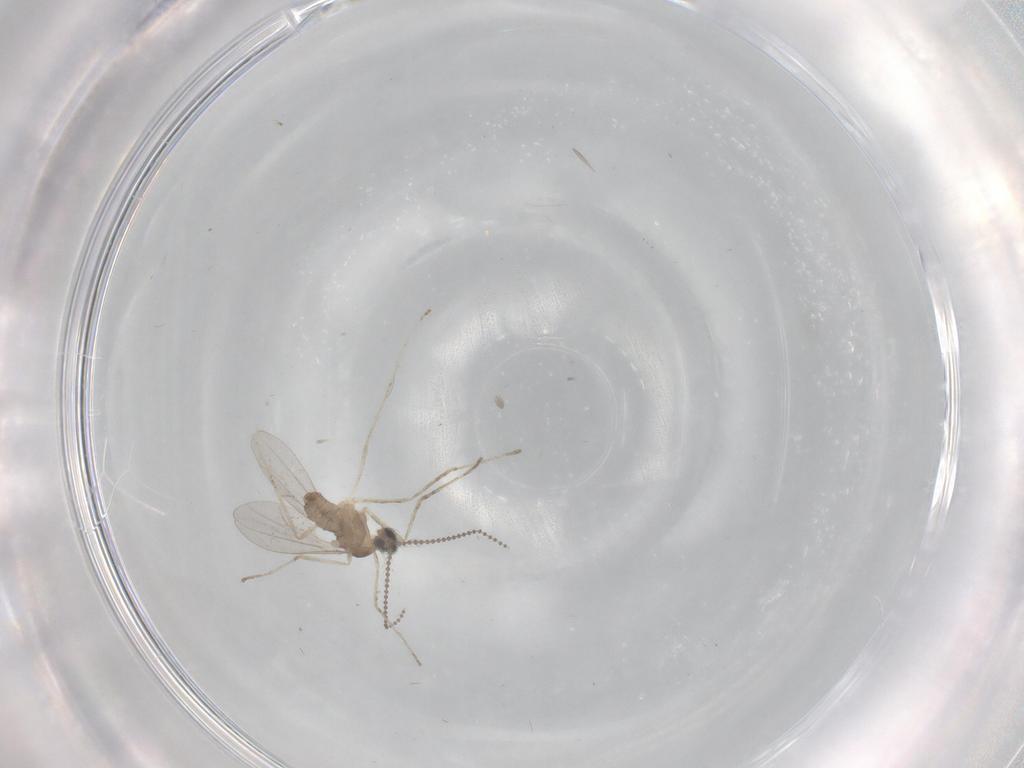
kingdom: Animalia
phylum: Arthropoda
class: Insecta
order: Diptera
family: Cecidomyiidae
